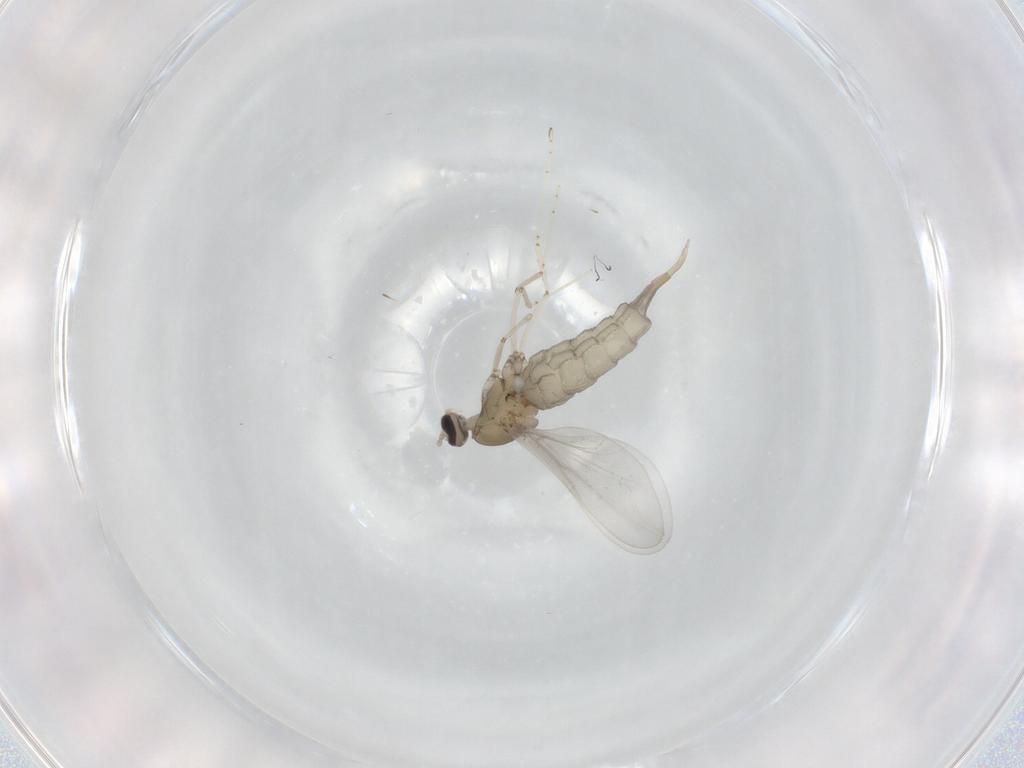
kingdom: Animalia
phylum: Arthropoda
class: Insecta
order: Diptera
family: Cecidomyiidae
